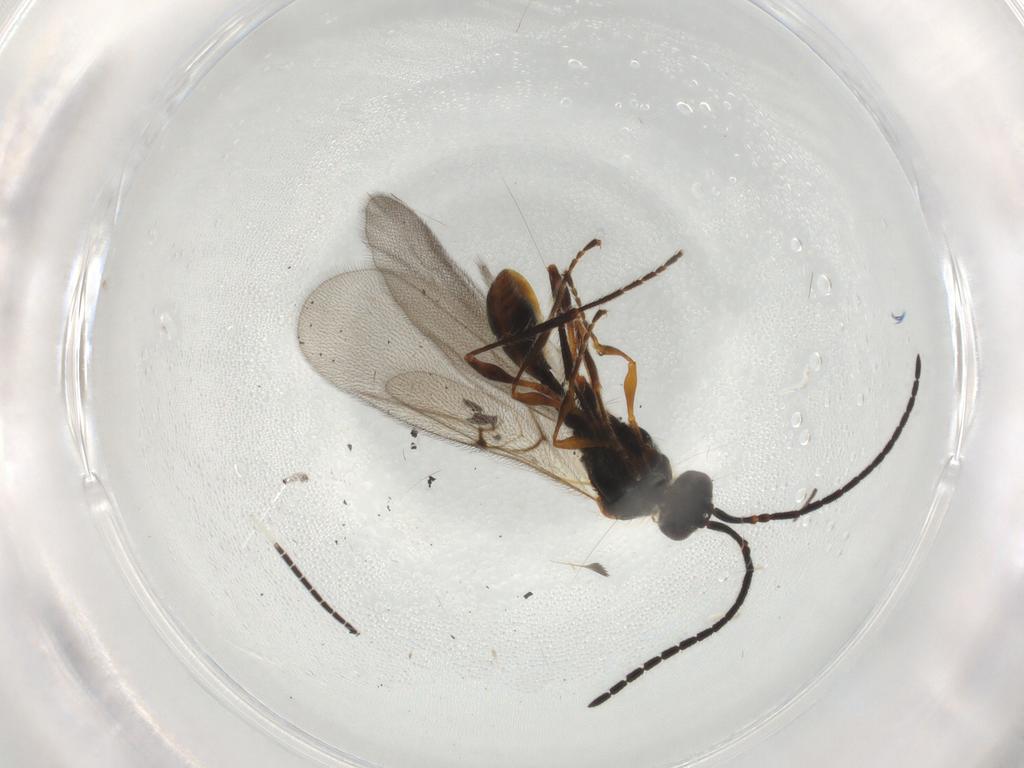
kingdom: Animalia
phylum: Arthropoda
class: Insecta
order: Hymenoptera
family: Diapriidae
